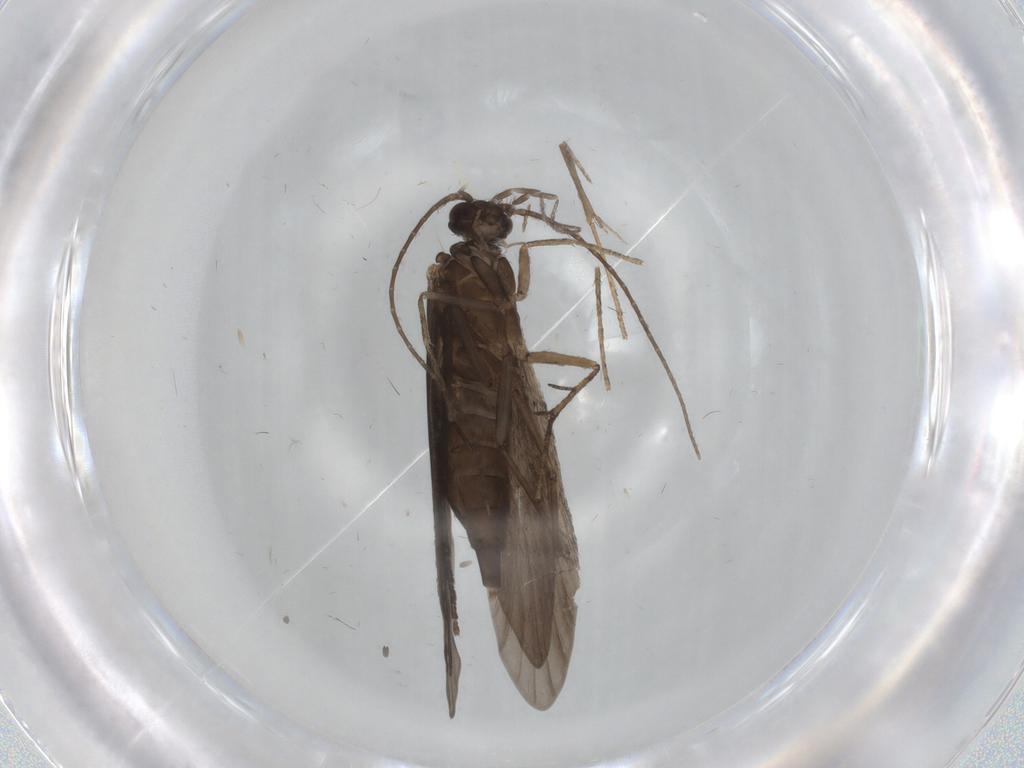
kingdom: Animalia
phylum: Arthropoda
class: Insecta
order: Trichoptera
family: Xiphocentronidae
